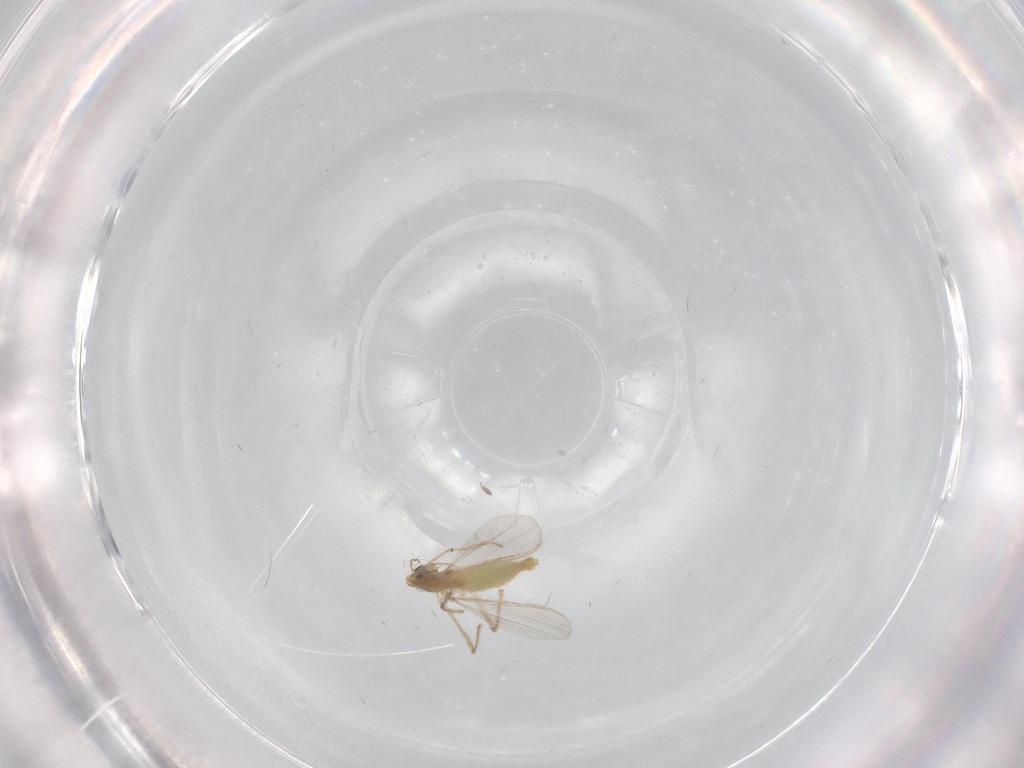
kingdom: Animalia
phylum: Arthropoda
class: Insecta
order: Diptera
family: Chironomidae
